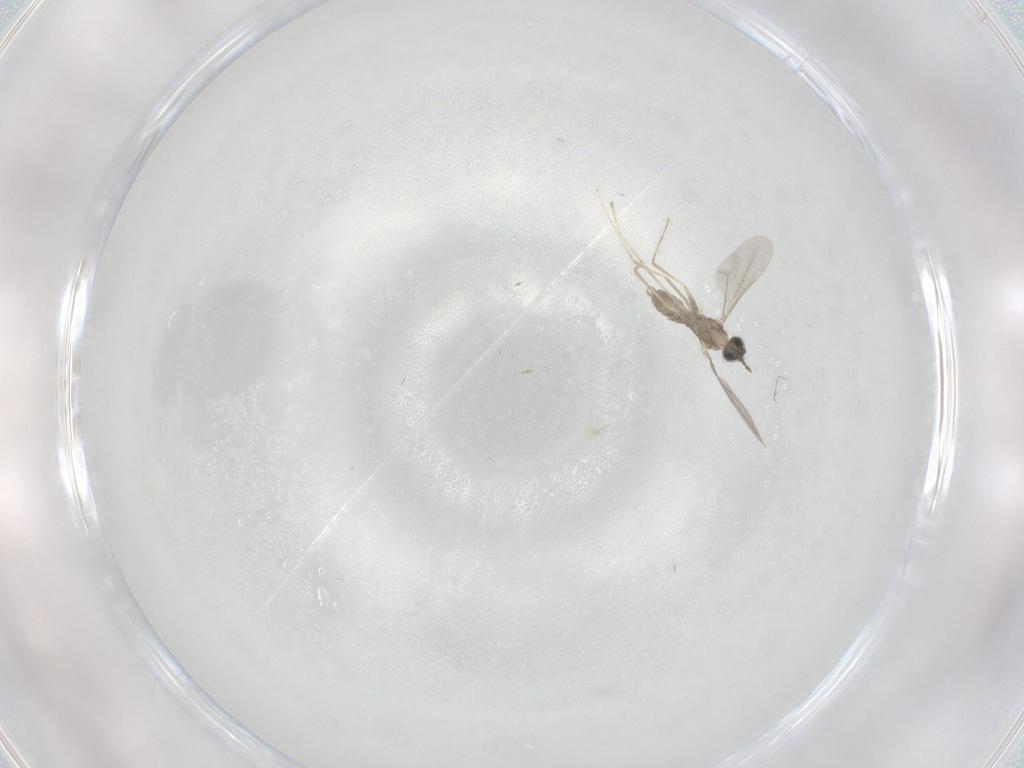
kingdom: Animalia
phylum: Arthropoda
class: Insecta
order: Diptera
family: Cecidomyiidae
